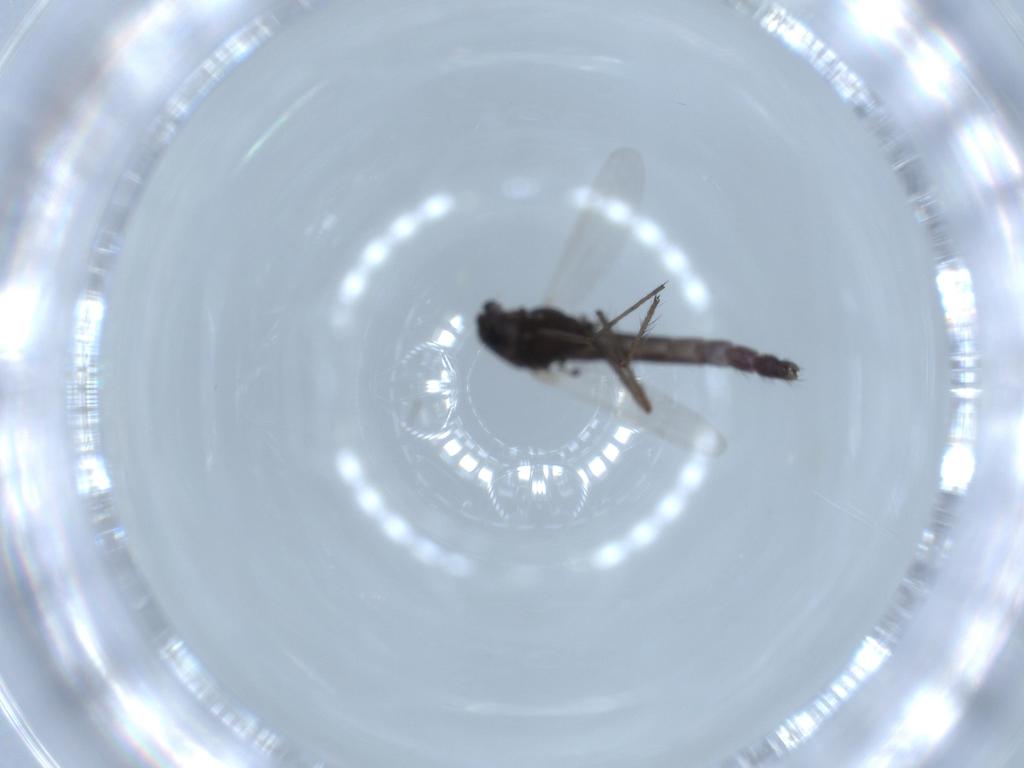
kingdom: Animalia
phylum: Arthropoda
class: Insecta
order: Diptera
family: Chironomidae
